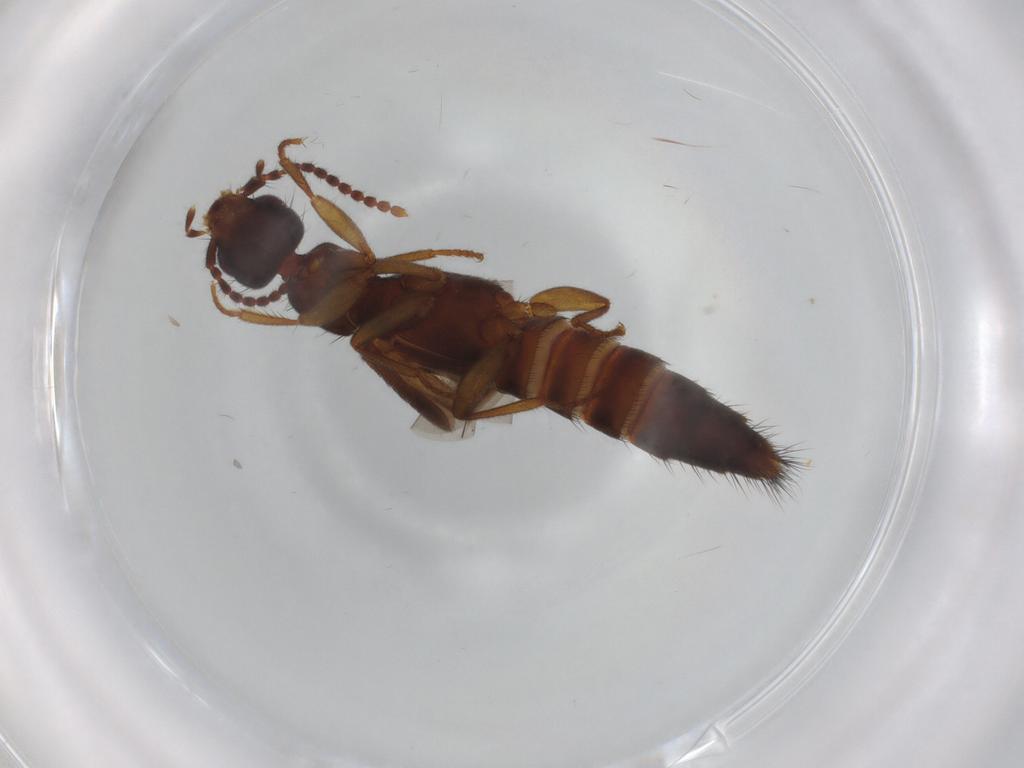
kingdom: Animalia
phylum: Arthropoda
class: Insecta
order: Coleoptera
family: Staphylinidae
